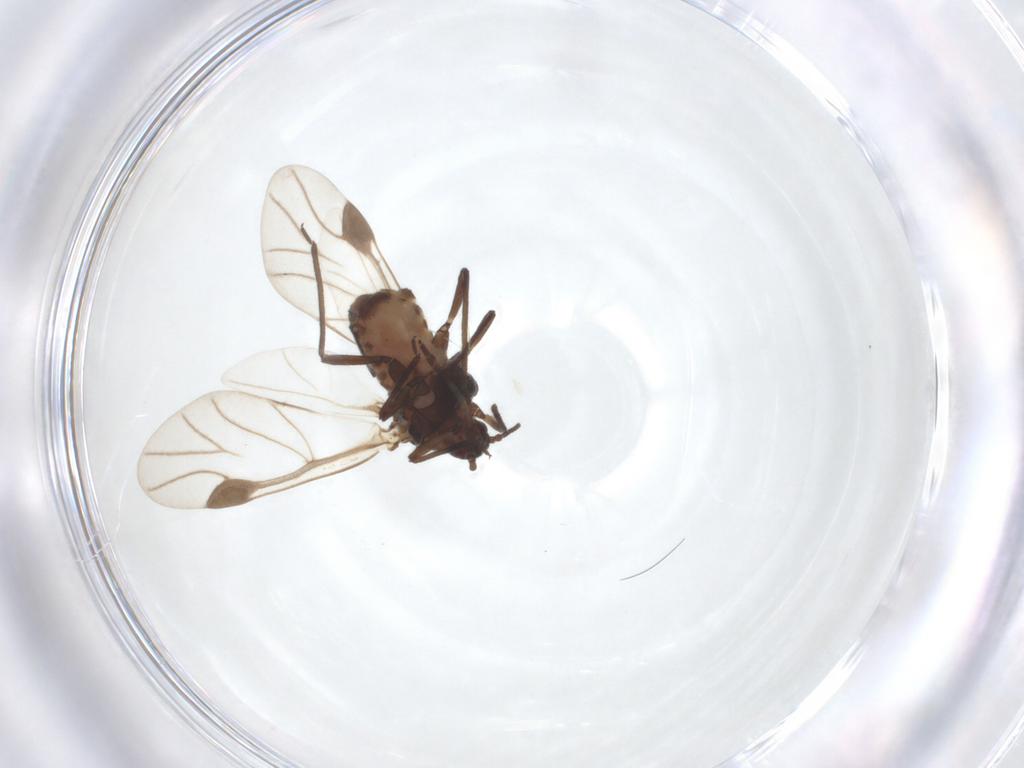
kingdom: Animalia
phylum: Arthropoda
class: Insecta
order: Hemiptera
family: Aphididae
